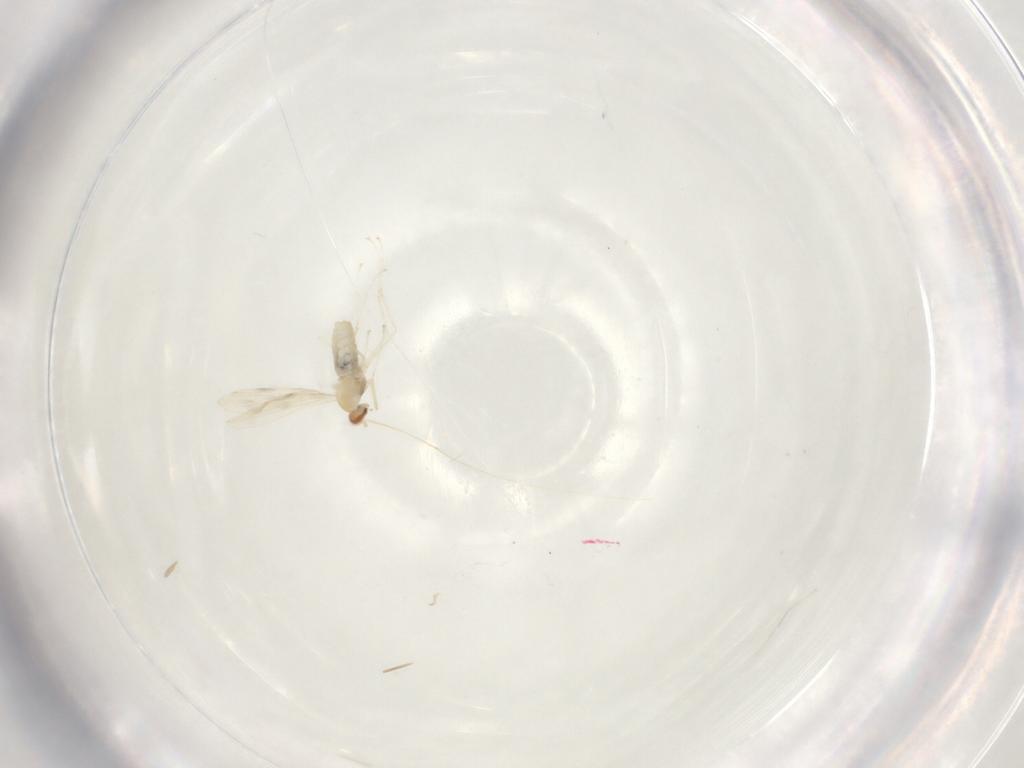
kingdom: Animalia
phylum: Arthropoda
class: Insecta
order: Diptera
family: Cecidomyiidae
